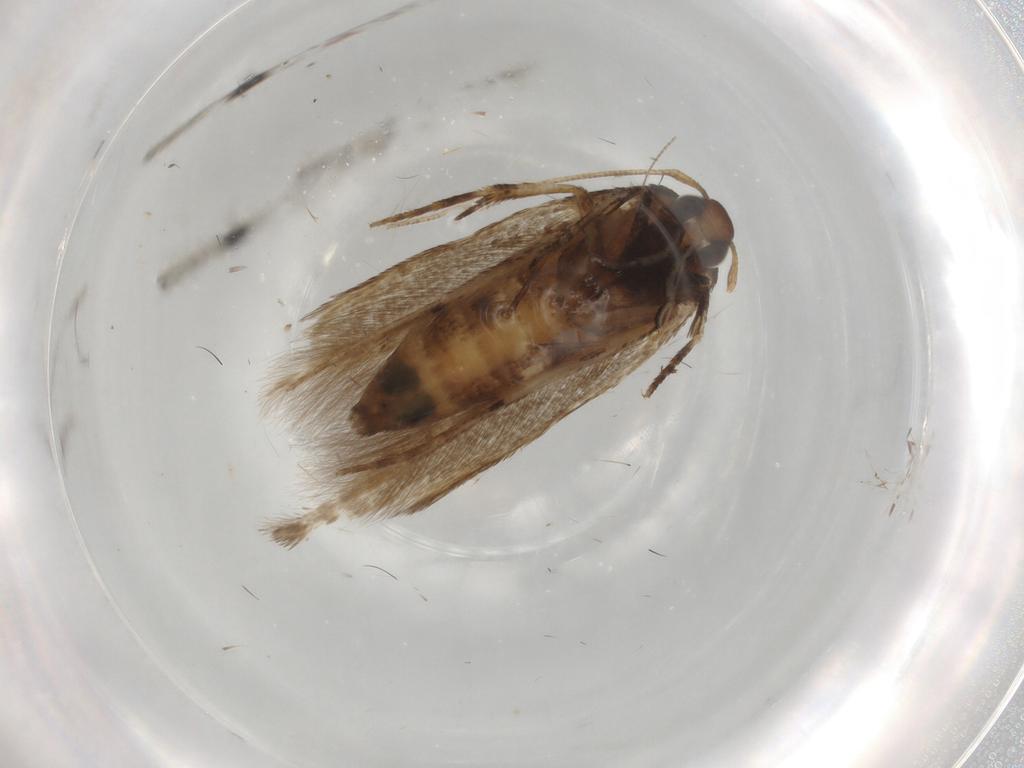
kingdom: Animalia
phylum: Arthropoda
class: Insecta
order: Lepidoptera
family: Cosmopterigidae
